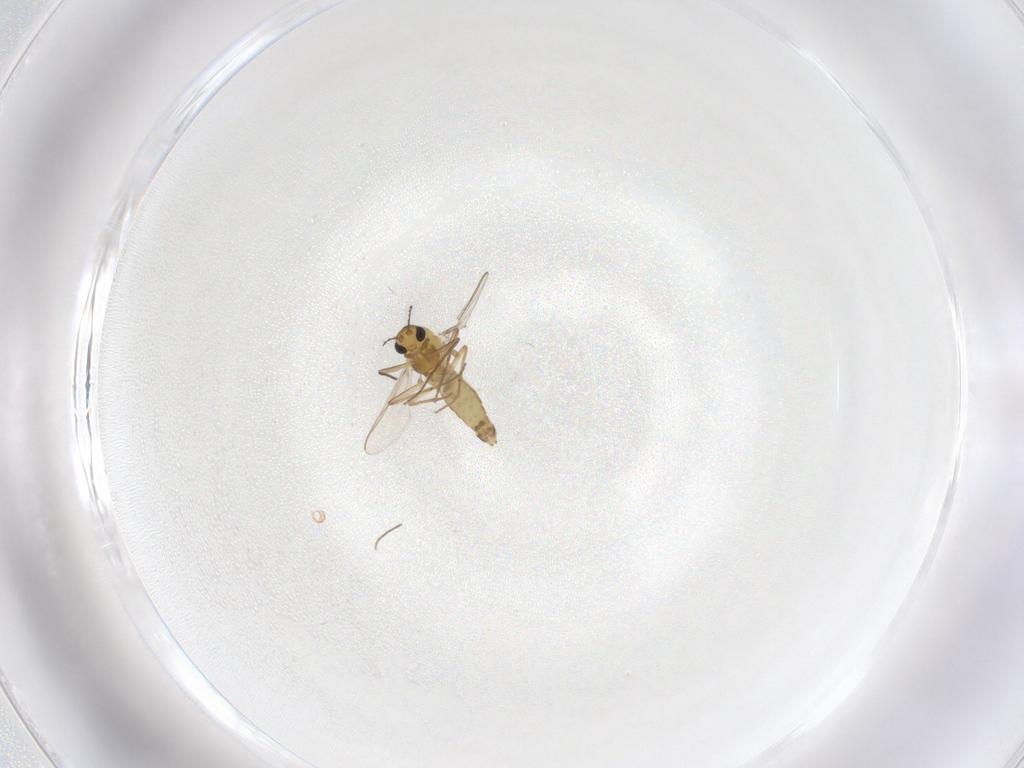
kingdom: Animalia
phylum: Arthropoda
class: Insecta
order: Diptera
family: Chironomidae
